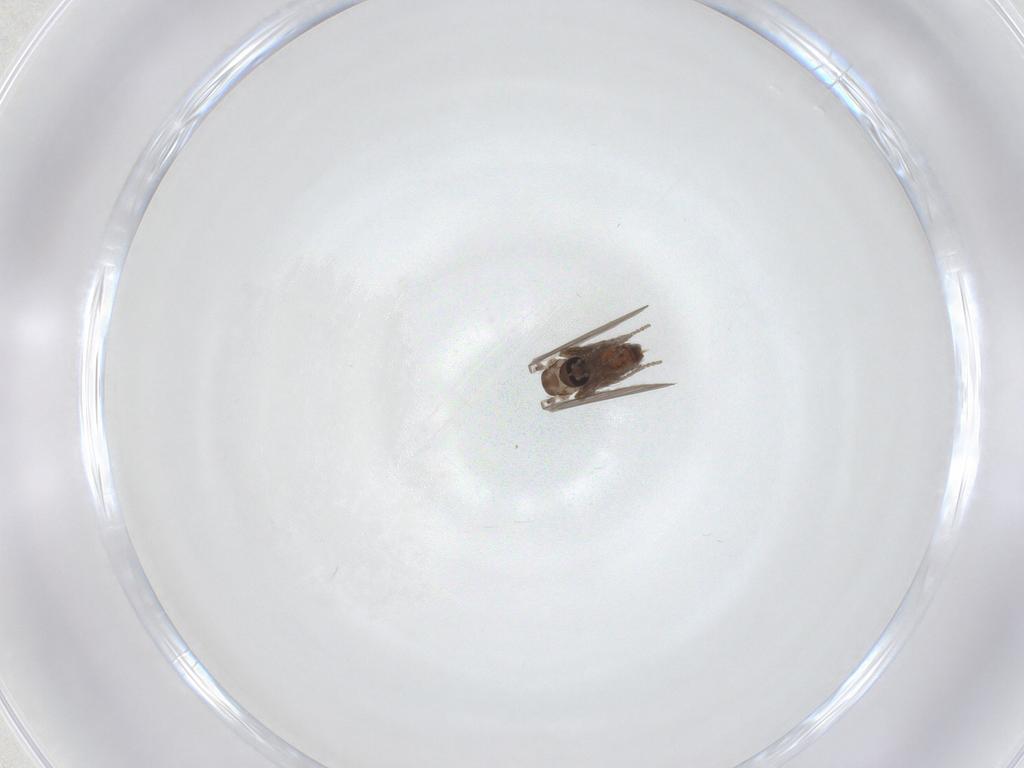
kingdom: Animalia
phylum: Arthropoda
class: Insecta
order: Diptera
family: Psychodidae
